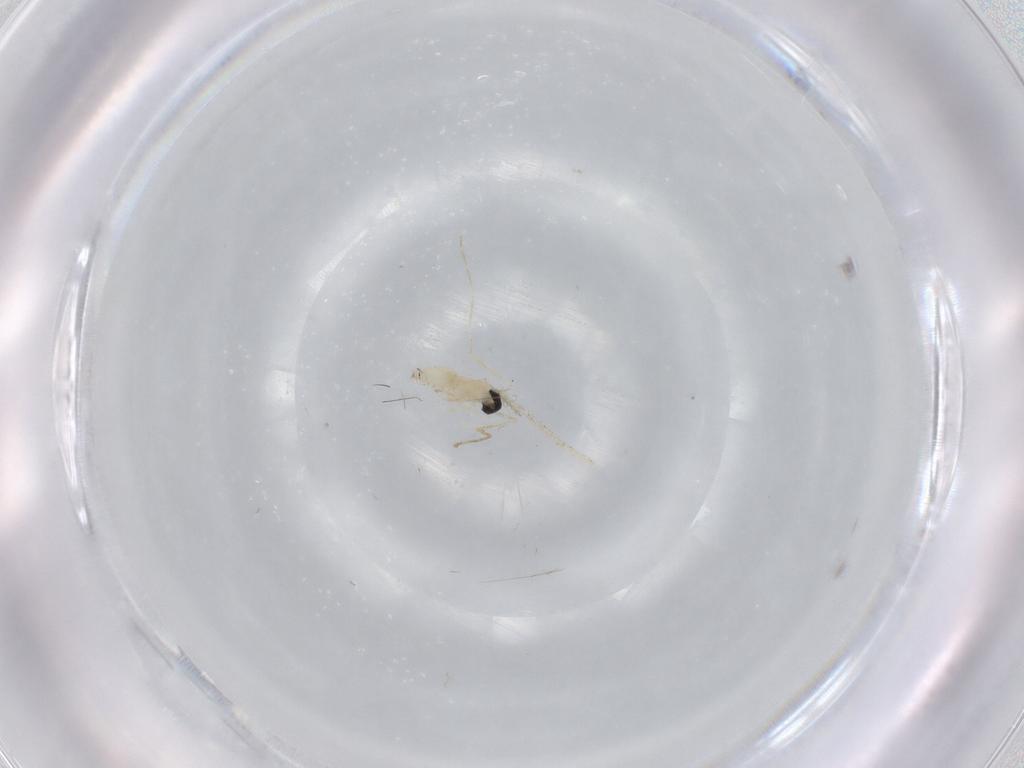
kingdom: Animalia
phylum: Arthropoda
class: Insecta
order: Diptera
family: Cecidomyiidae
